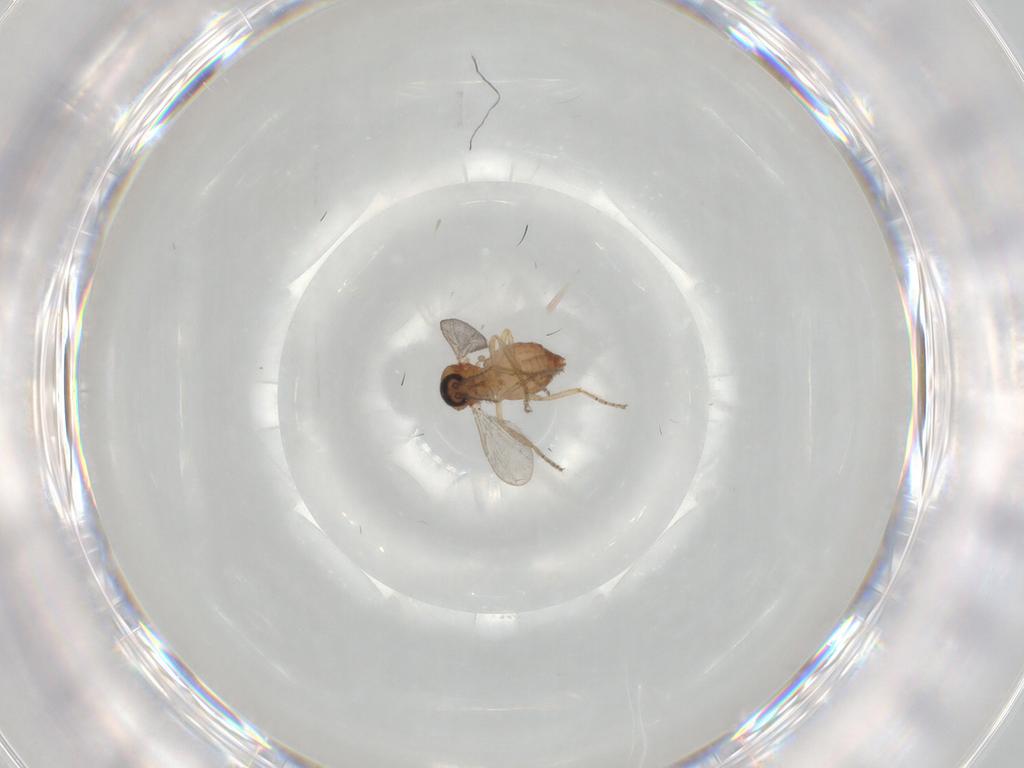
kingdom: Animalia
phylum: Arthropoda
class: Insecta
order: Diptera
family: Ceratopogonidae
